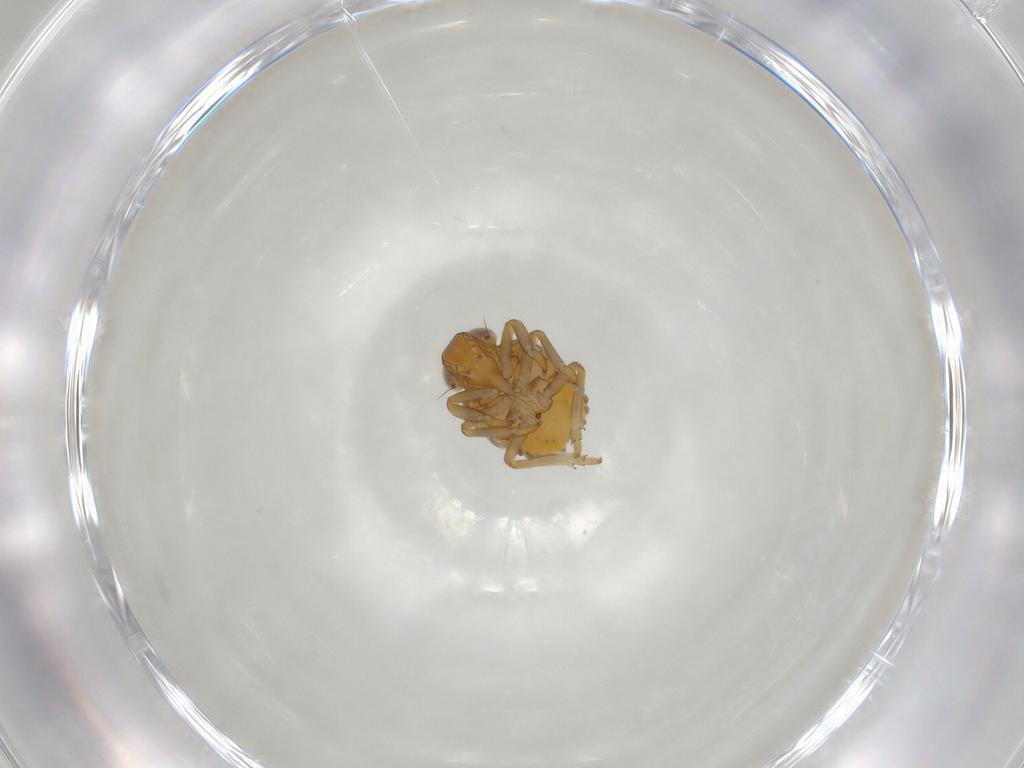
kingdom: Animalia
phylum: Arthropoda
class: Insecta
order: Hemiptera
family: Issidae
